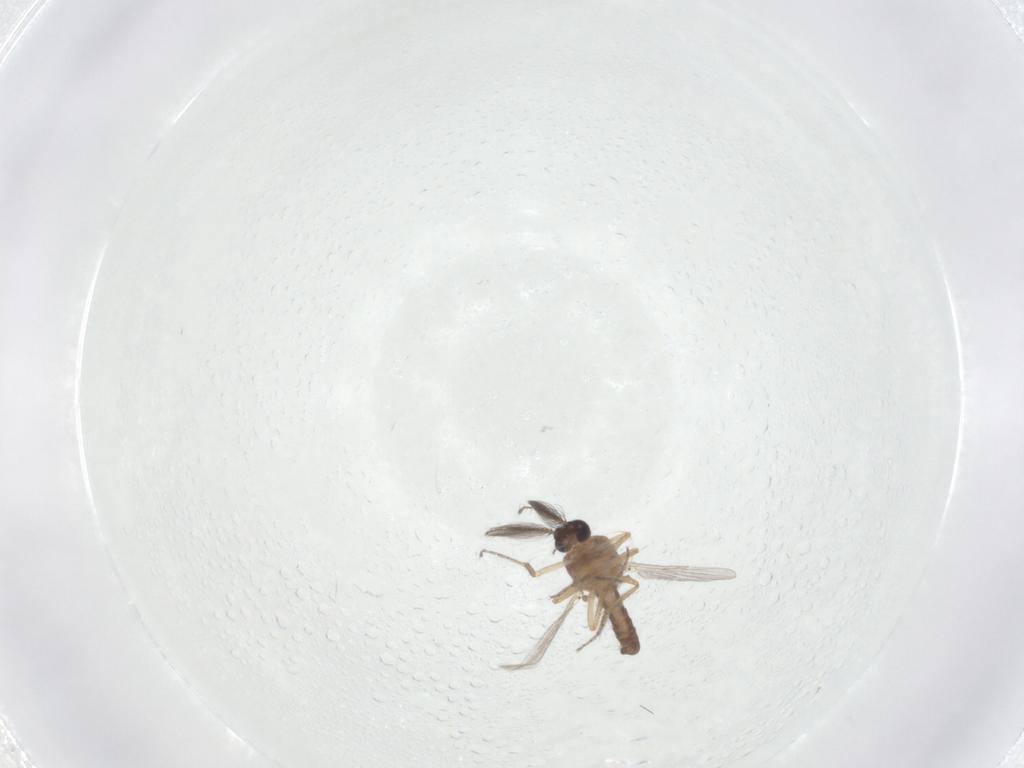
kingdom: Animalia
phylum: Arthropoda
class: Insecta
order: Diptera
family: Ceratopogonidae
